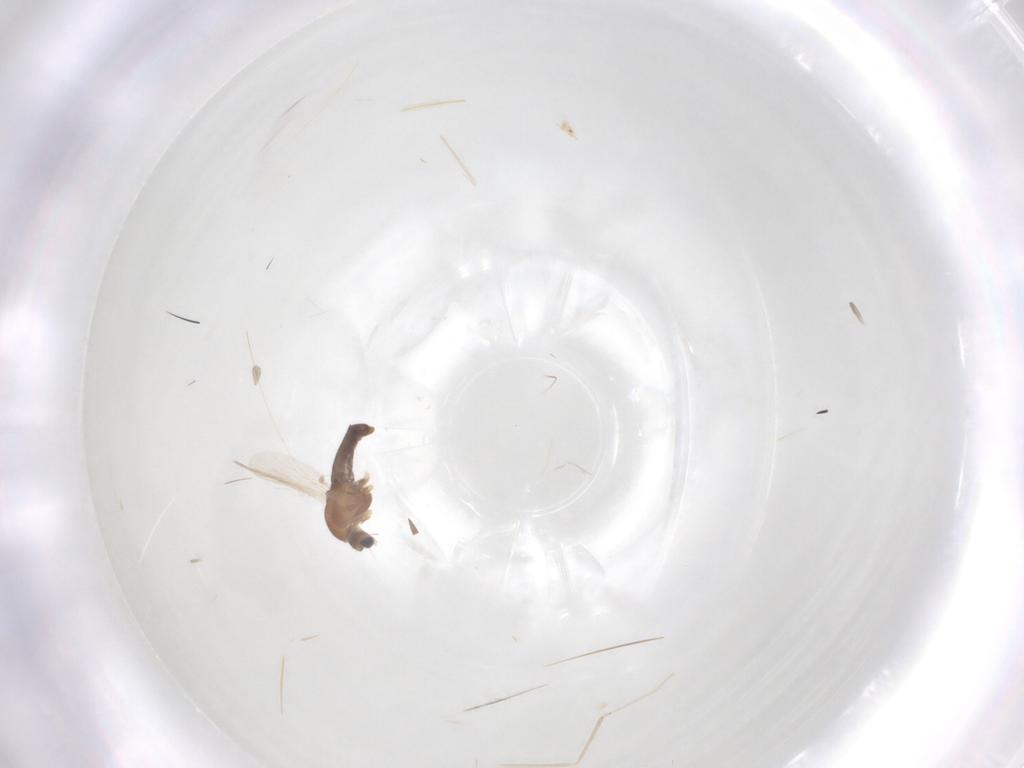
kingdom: Animalia
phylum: Arthropoda
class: Insecta
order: Diptera
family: Chironomidae
